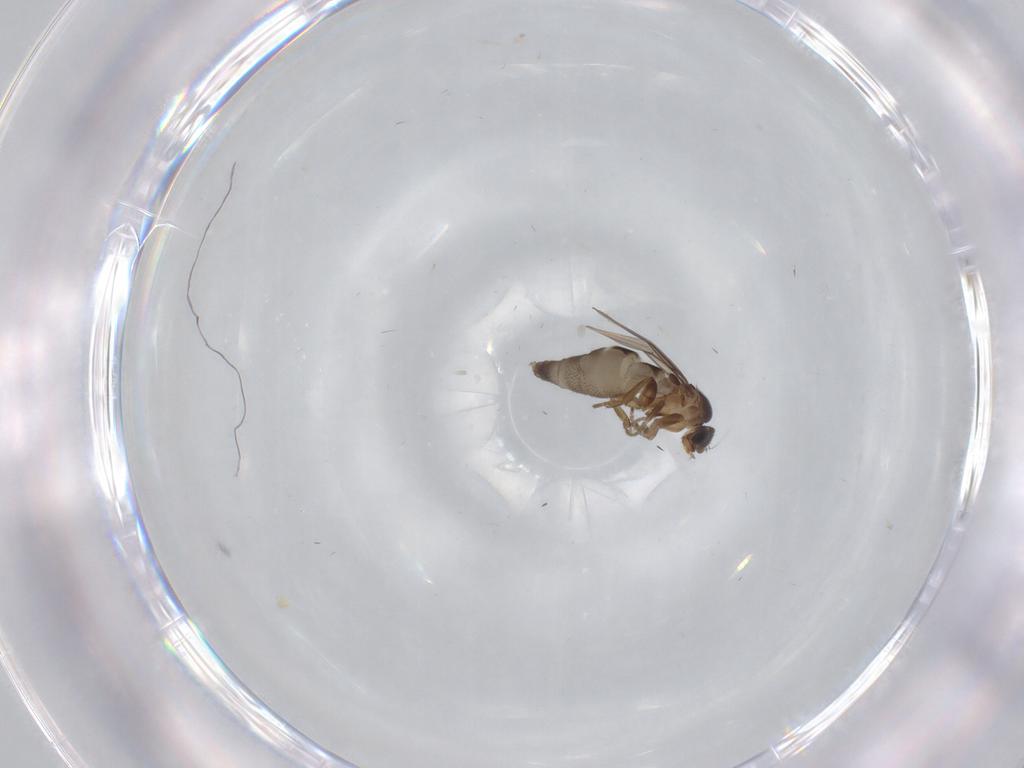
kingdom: Animalia
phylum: Arthropoda
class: Insecta
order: Diptera
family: Phoridae
